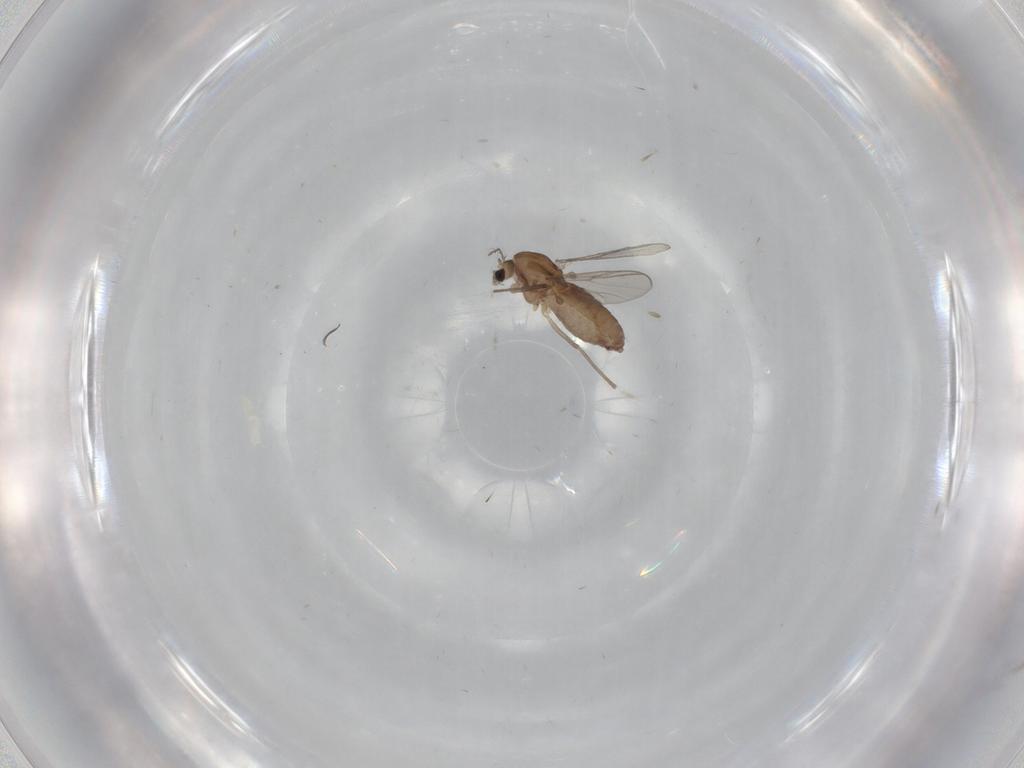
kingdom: Animalia
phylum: Arthropoda
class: Insecta
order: Diptera
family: Chironomidae
